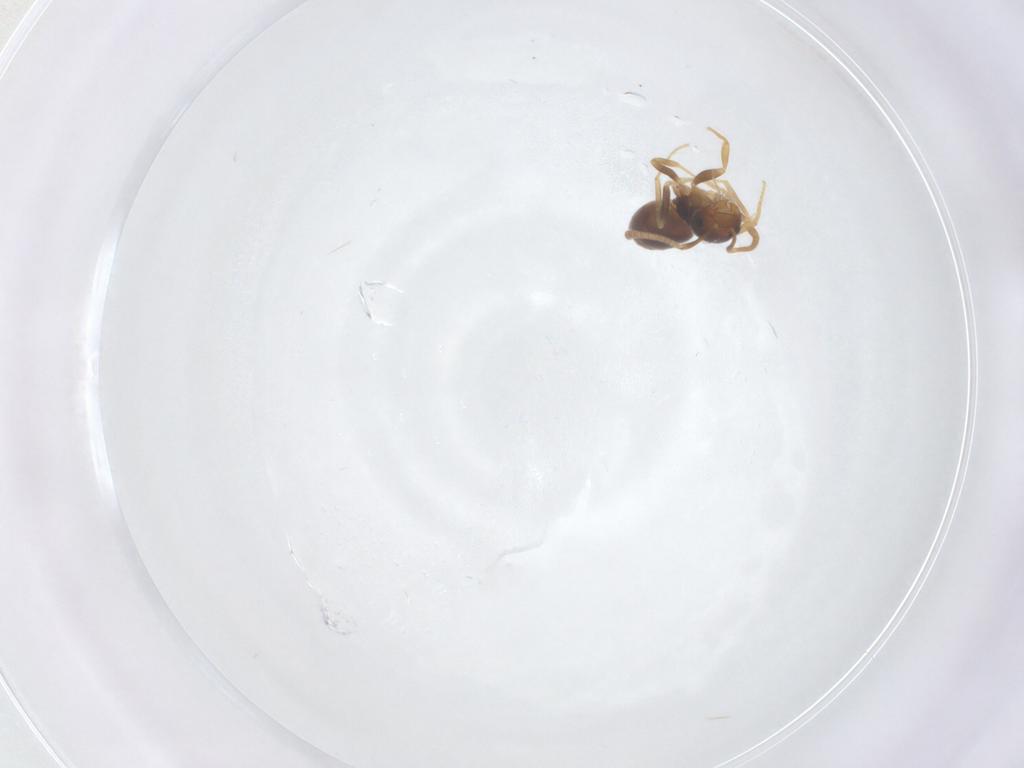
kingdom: Animalia
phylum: Arthropoda
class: Insecta
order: Hymenoptera
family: Formicidae
